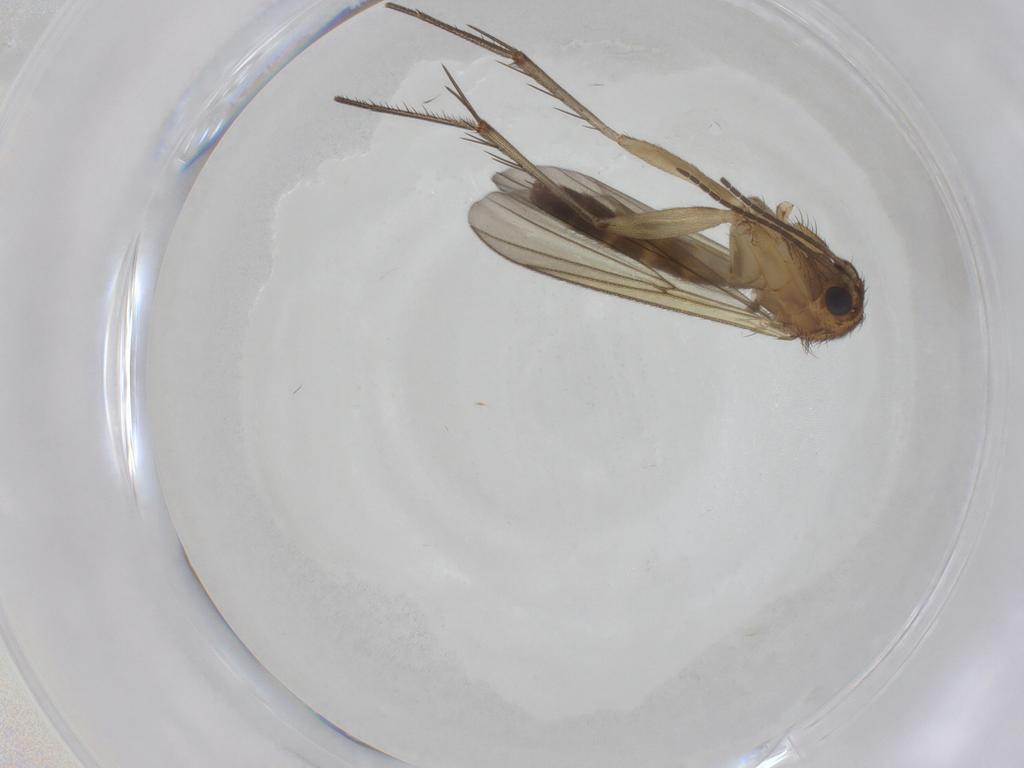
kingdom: Animalia
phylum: Arthropoda
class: Insecta
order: Diptera
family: Mycetophilidae
